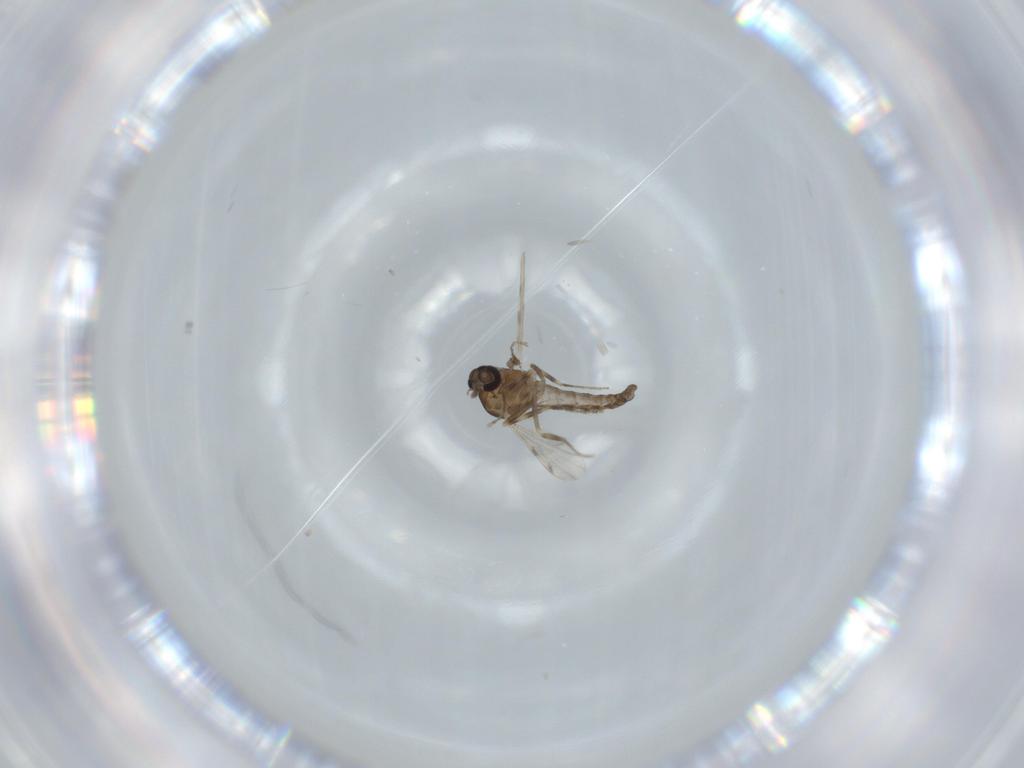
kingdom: Animalia
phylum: Arthropoda
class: Insecta
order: Diptera
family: Ceratopogonidae
